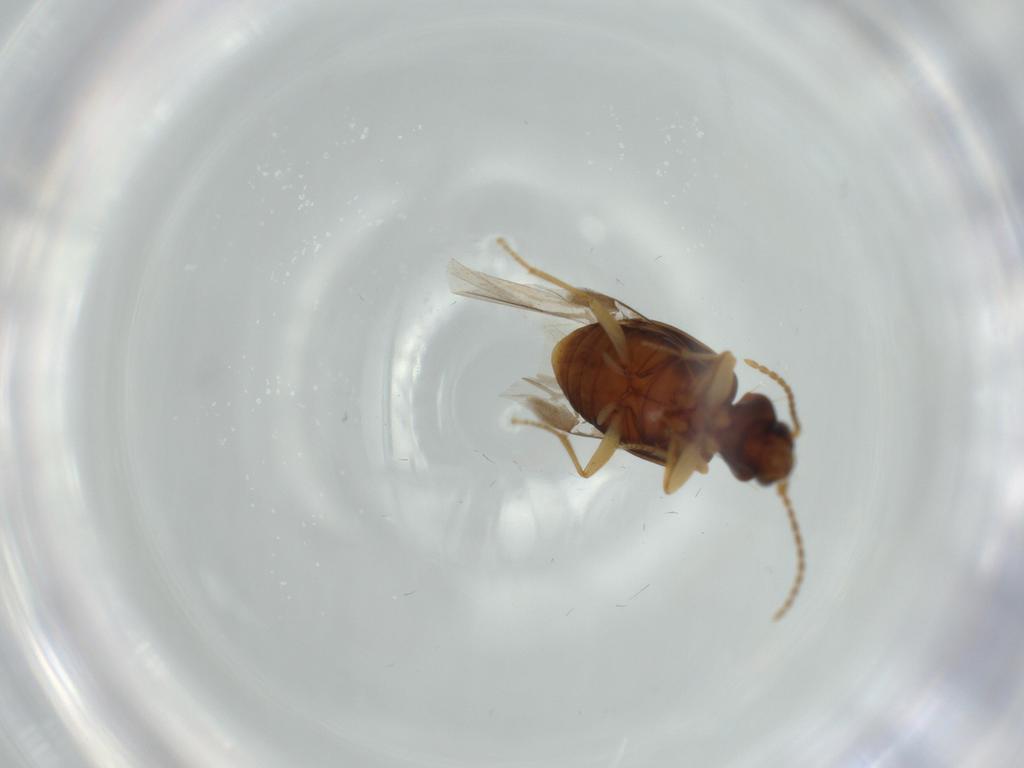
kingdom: Animalia
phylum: Arthropoda
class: Insecta
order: Coleoptera
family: Carabidae
